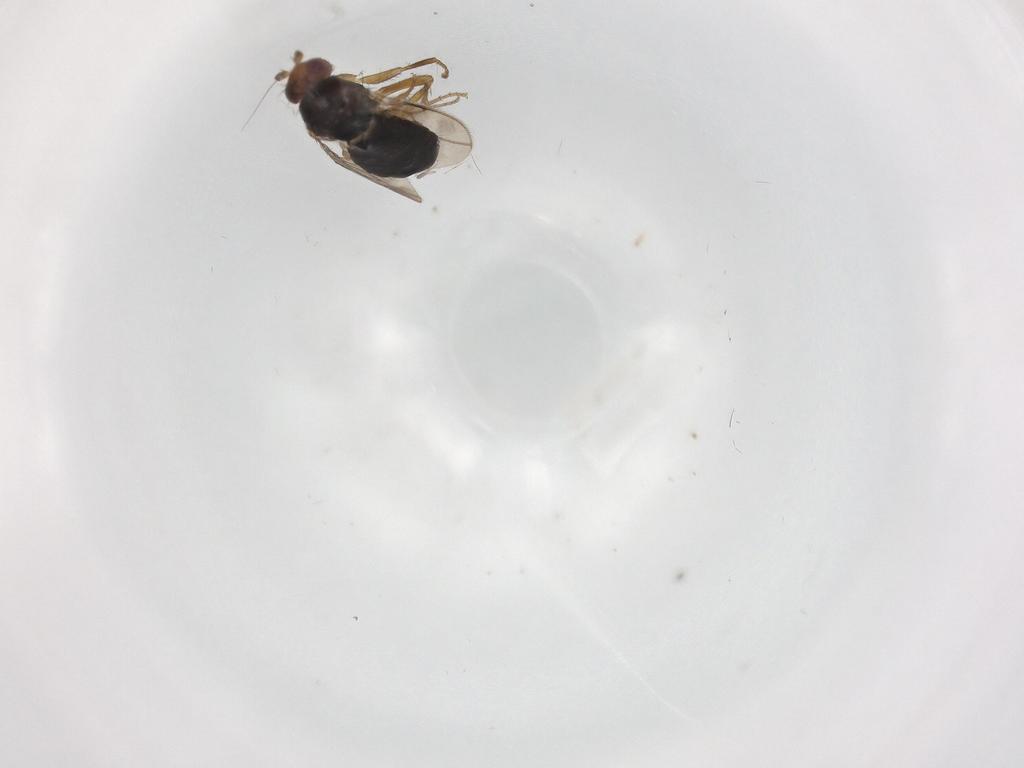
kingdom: Animalia
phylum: Arthropoda
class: Insecta
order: Diptera
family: Chironomidae
